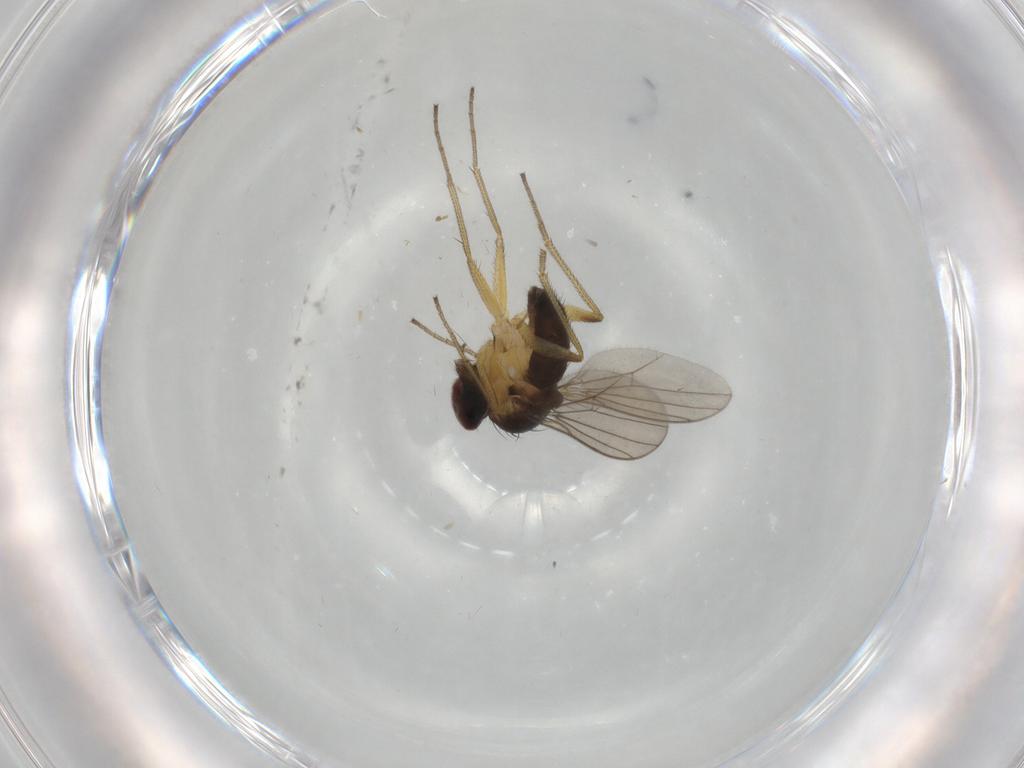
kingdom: Animalia
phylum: Arthropoda
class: Insecta
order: Diptera
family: Dolichopodidae
